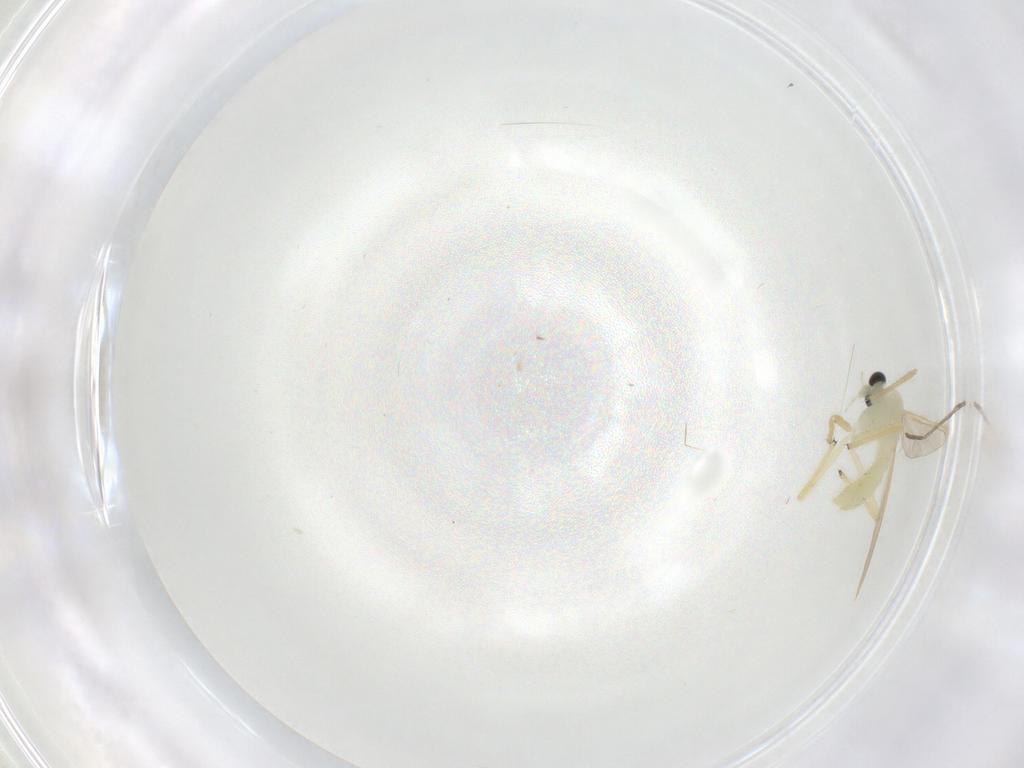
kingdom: Animalia
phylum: Arthropoda
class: Insecta
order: Diptera
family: Chironomidae
